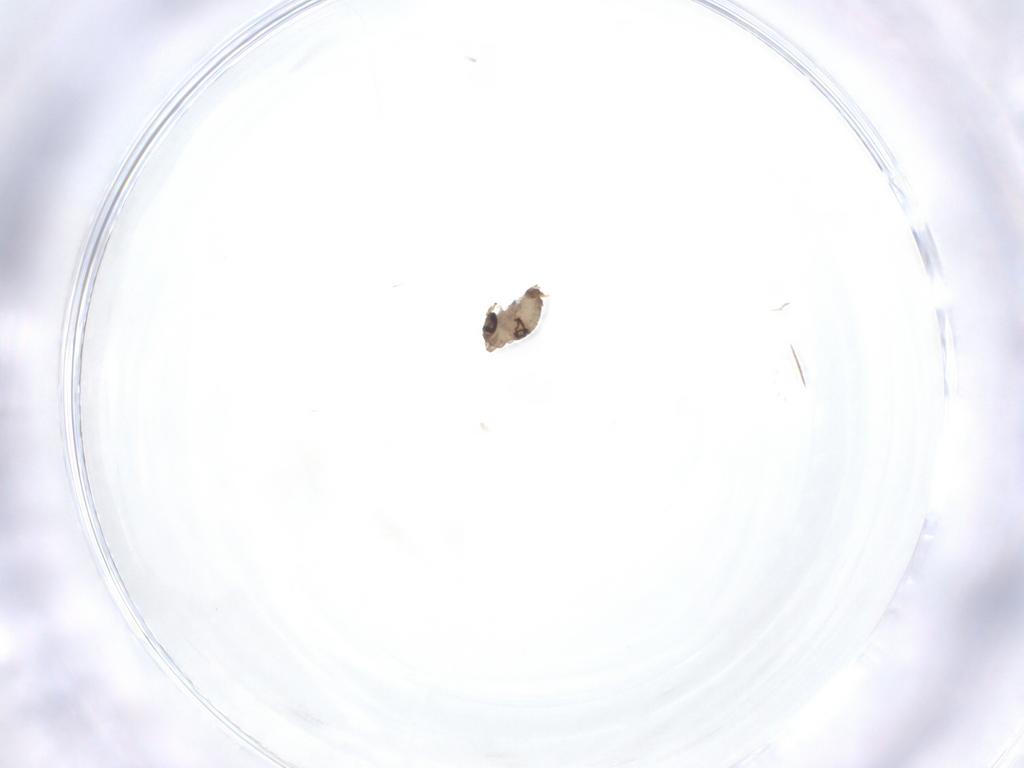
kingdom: Animalia
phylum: Arthropoda
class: Insecta
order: Diptera
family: Psychodidae
